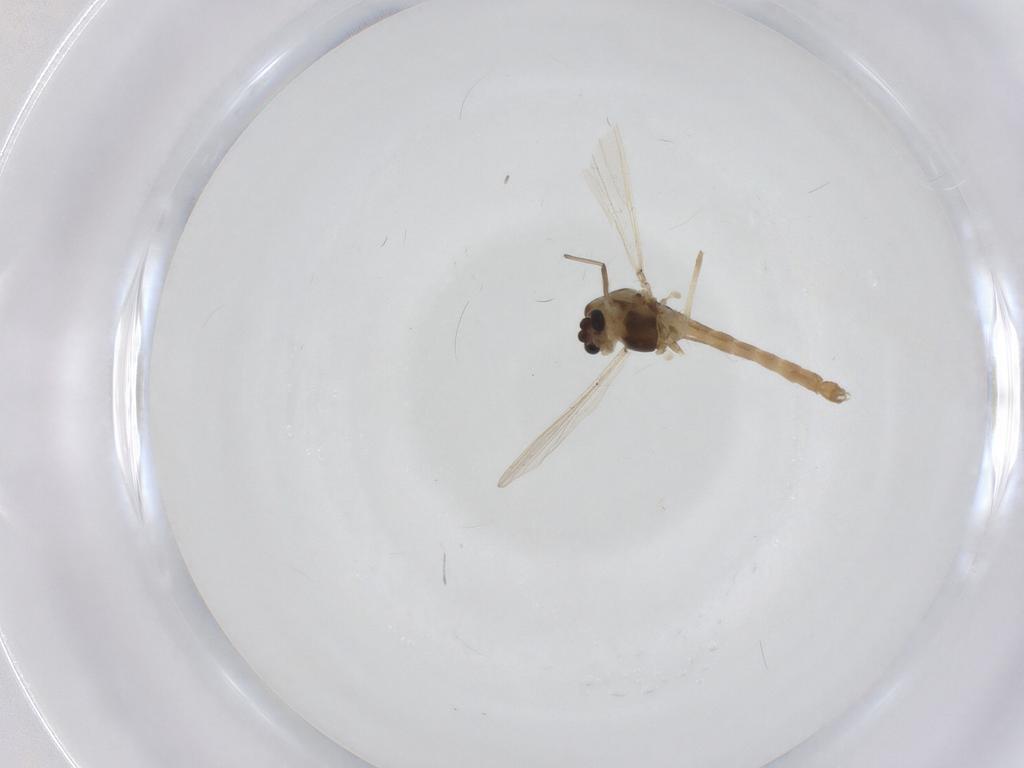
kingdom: Animalia
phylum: Arthropoda
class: Insecta
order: Diptera
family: Chironomidae
